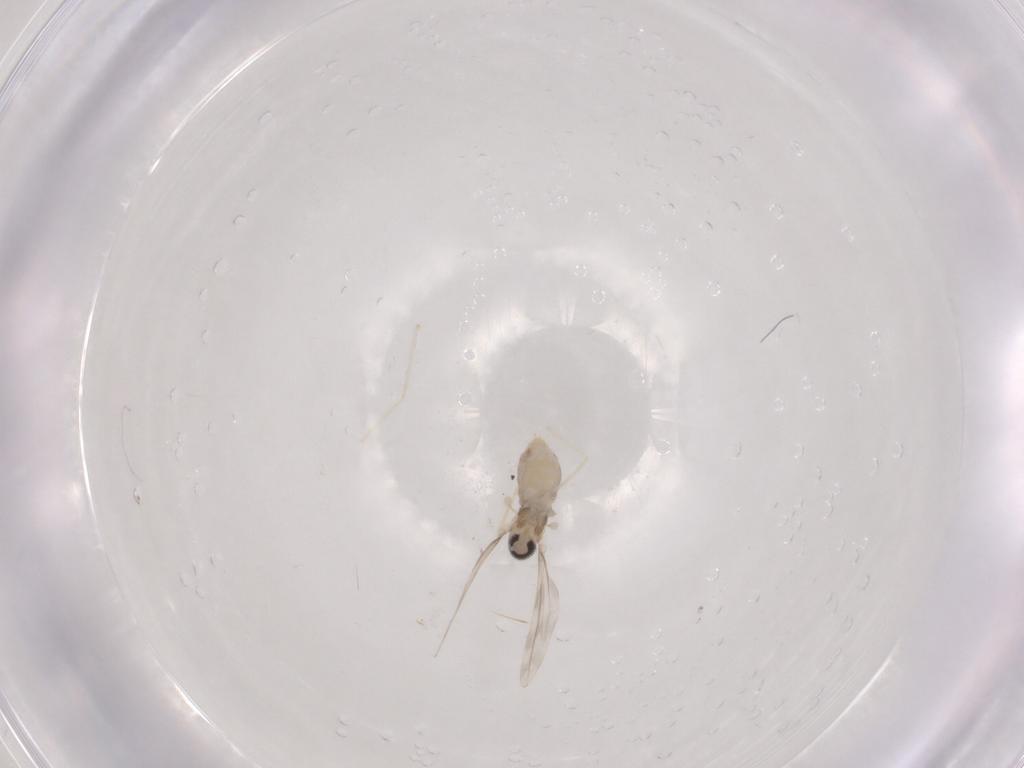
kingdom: Animalia
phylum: Arthropoda
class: Insecta
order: Diptera
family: Cecidomyiidae
